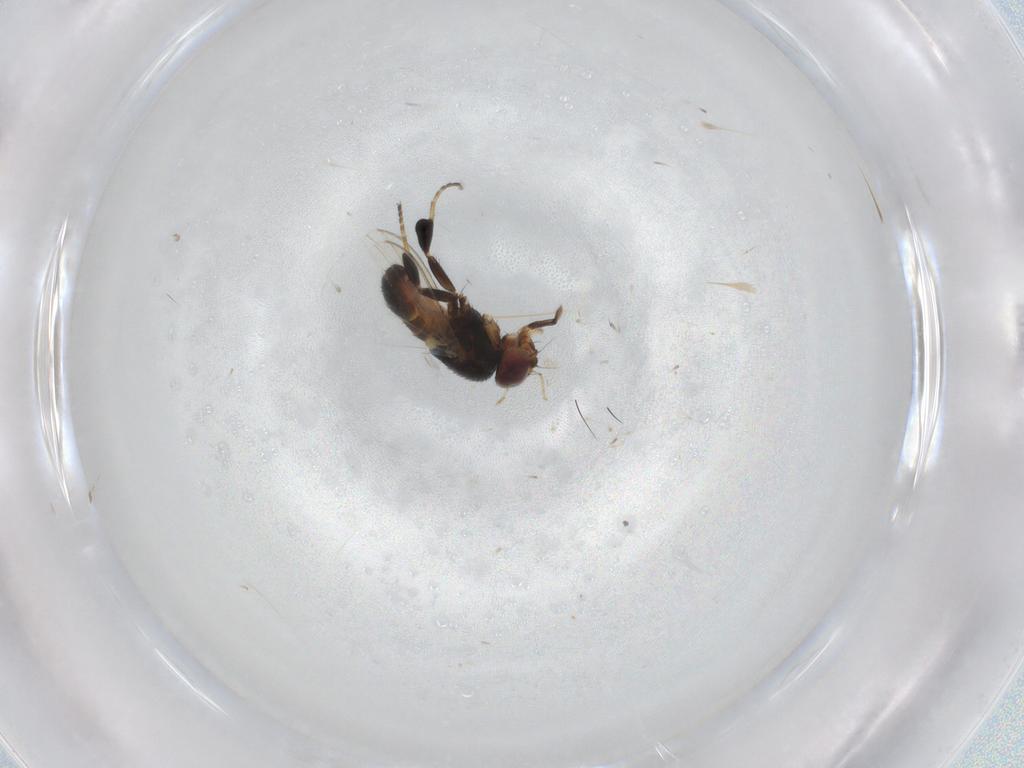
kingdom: Animalia
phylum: Arthropoda
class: Insecta
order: Diptera
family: Milichiidae
